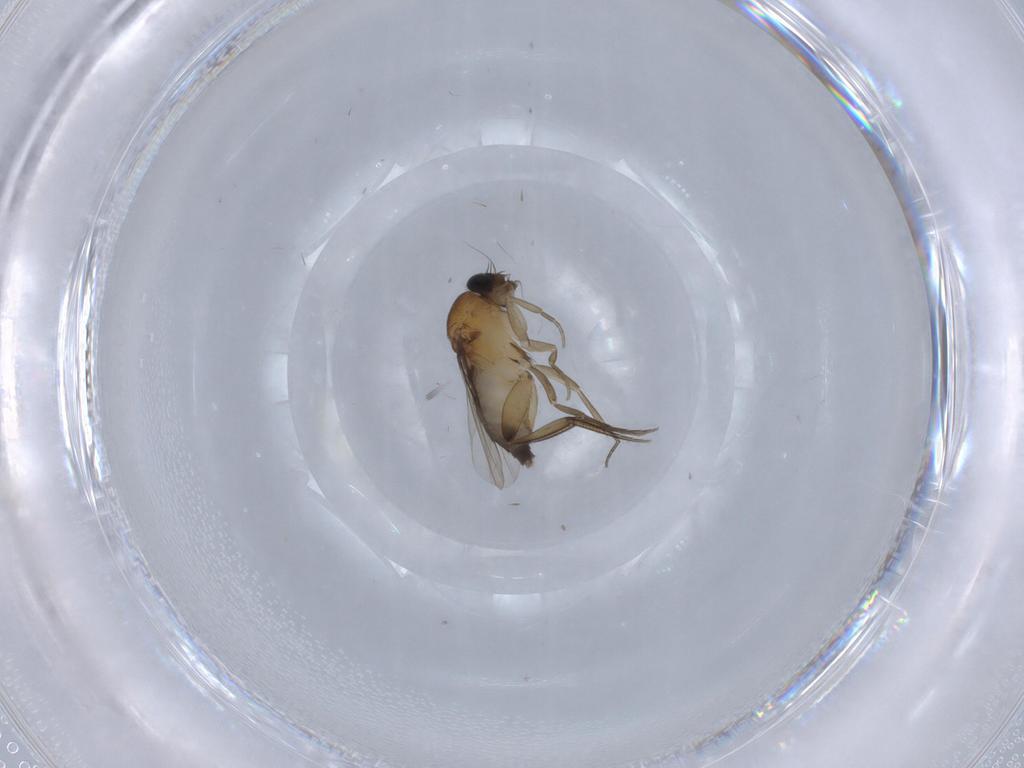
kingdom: Animalia
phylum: Arthropoda
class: Insecta
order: Diptera
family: Phoridae
